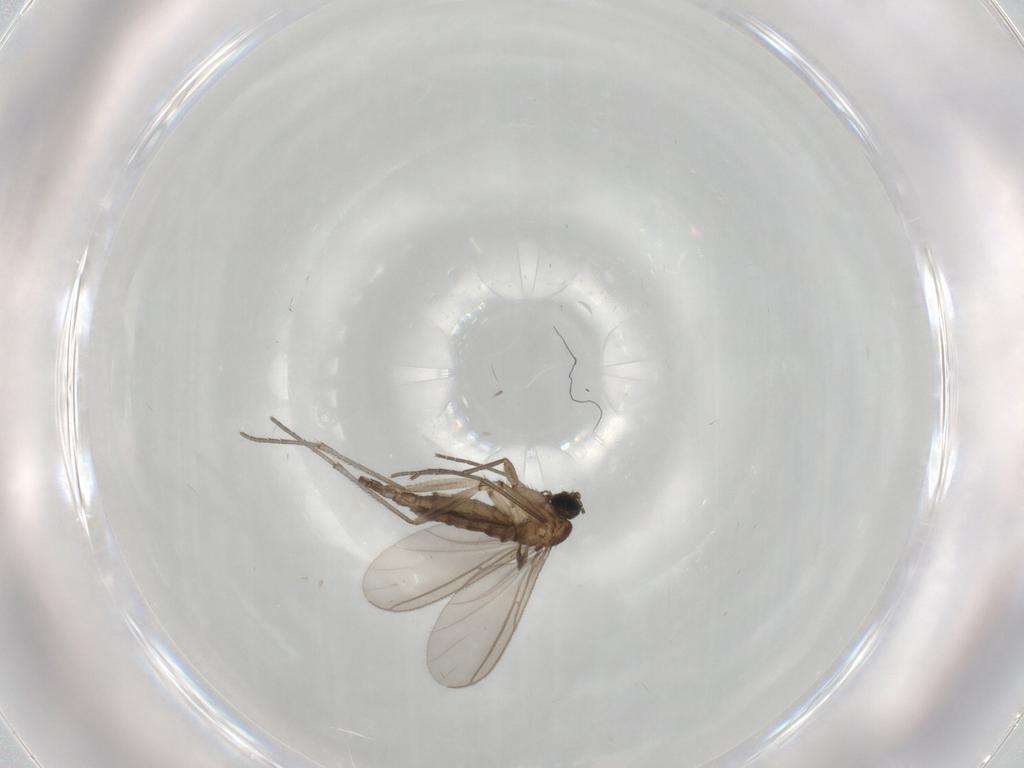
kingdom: Animalia
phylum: Arthropoda
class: Insecta
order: Diptera
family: Sciaridae
